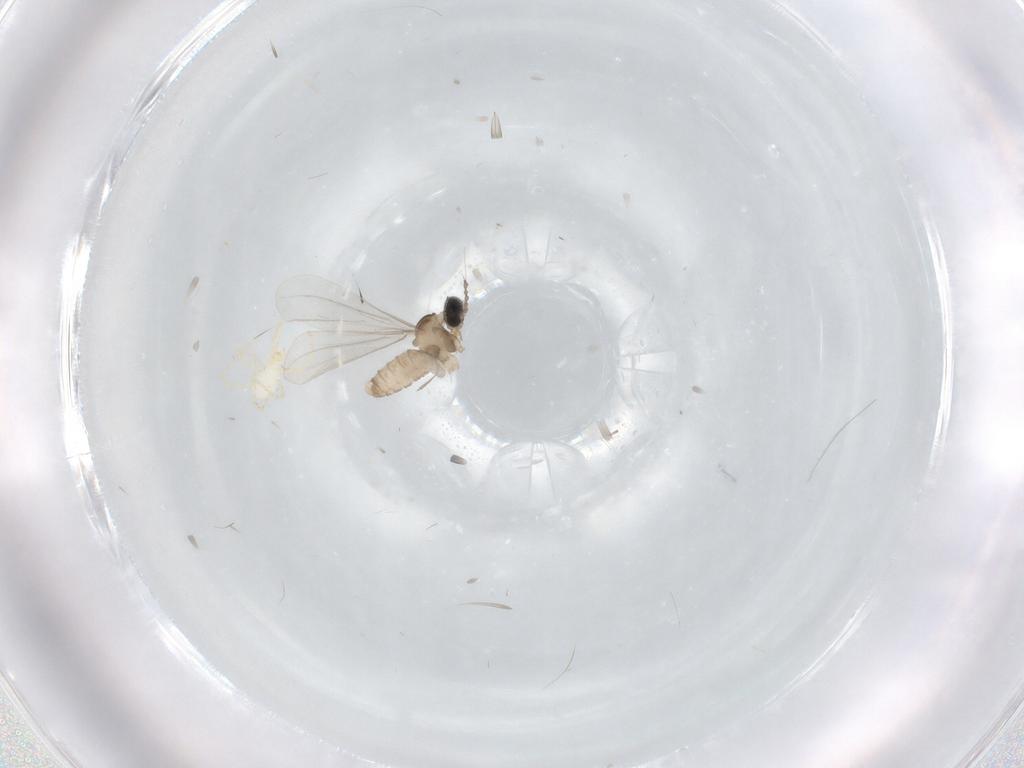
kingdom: Animalia
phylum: Arthropoda
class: Arachnida
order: Trombidiformes
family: Erythraeidae
